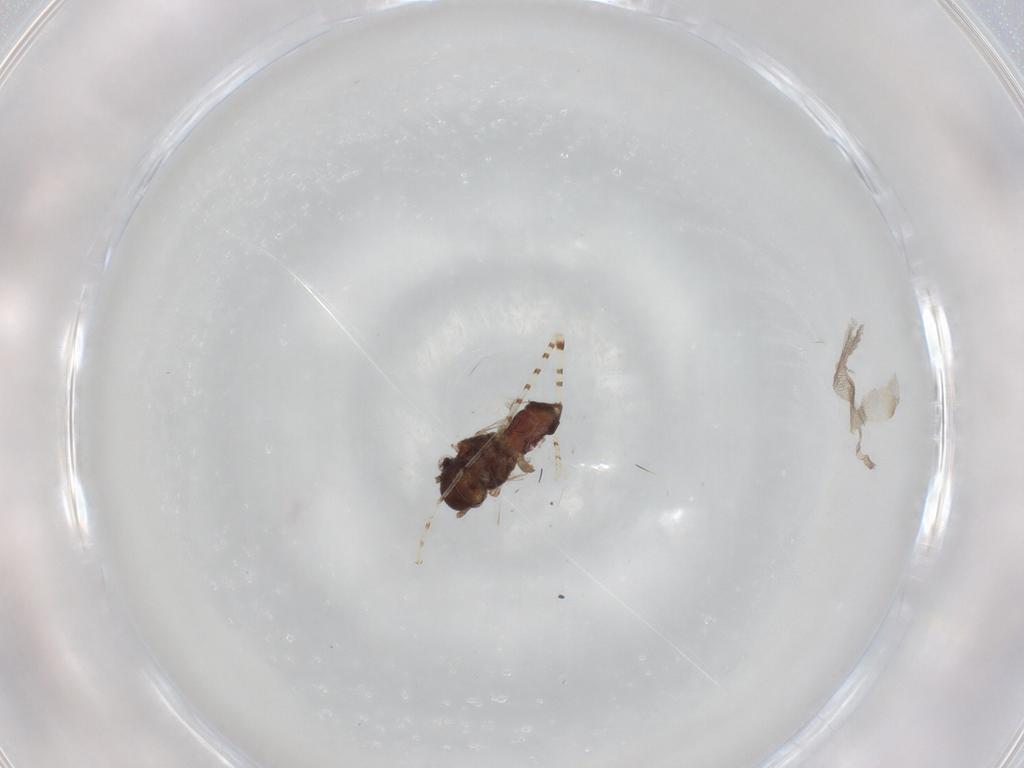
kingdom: Animalia
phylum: Arthropoda
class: Insecta
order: Psocodea
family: Lachesillidae
